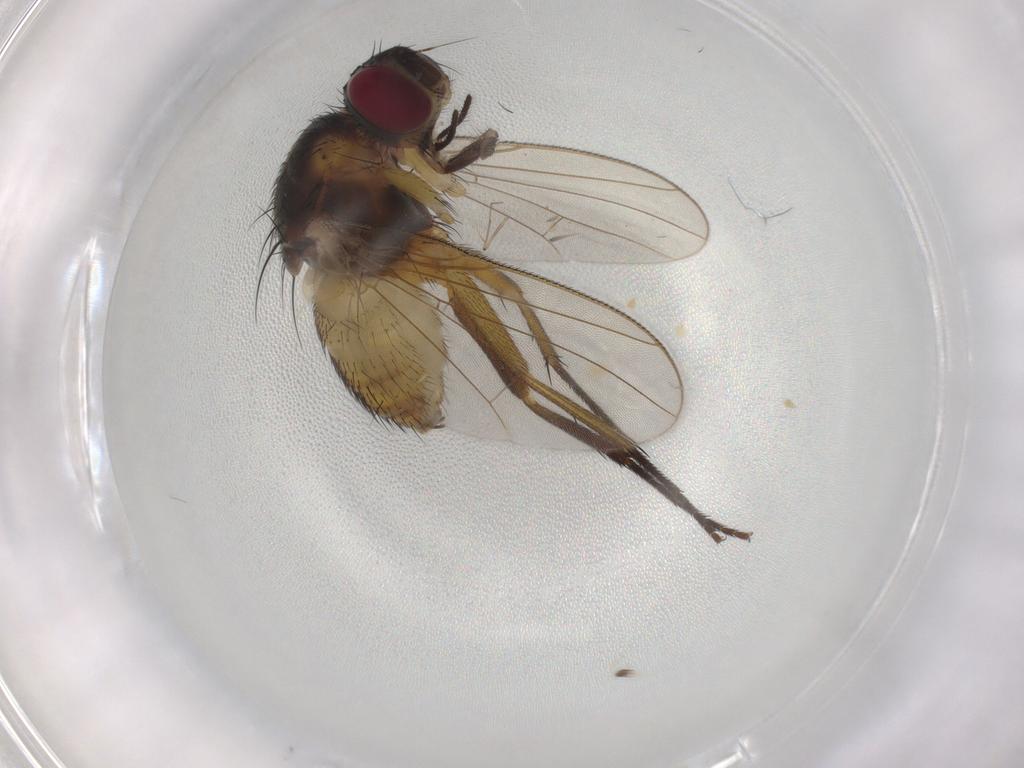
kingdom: Animalia
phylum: Arthropoda
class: Insecta
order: Diptera
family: Muscidae
